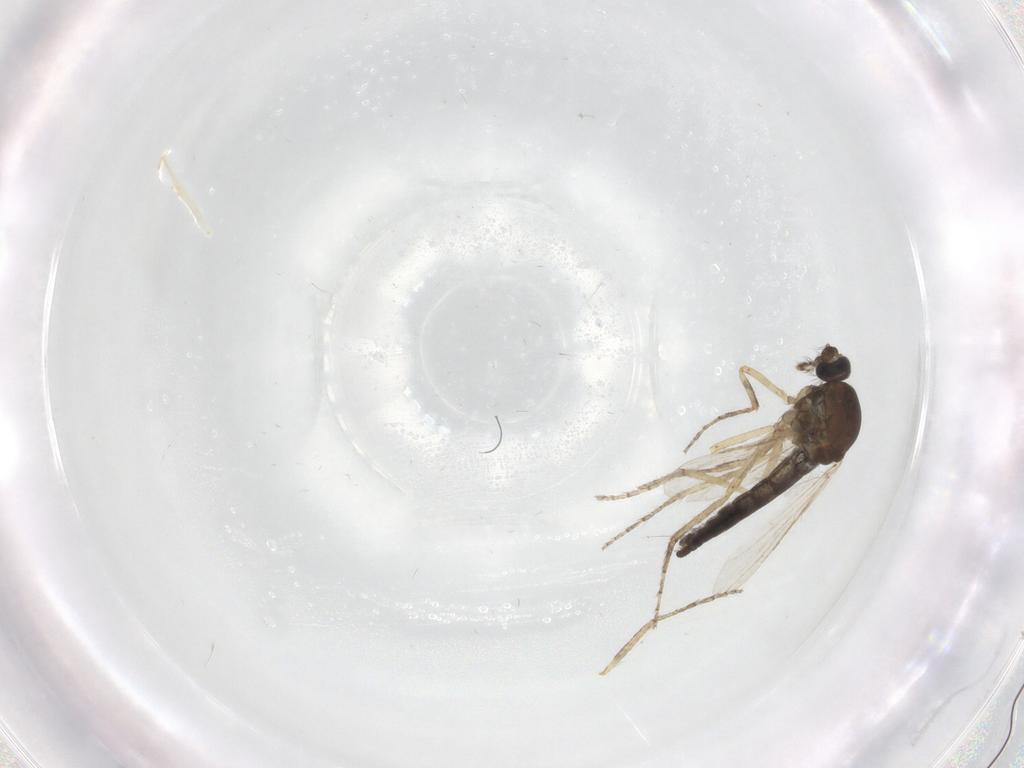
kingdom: Animalia
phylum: Arthropoda
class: Insecta
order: Diptera
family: Ceratopogonidae
